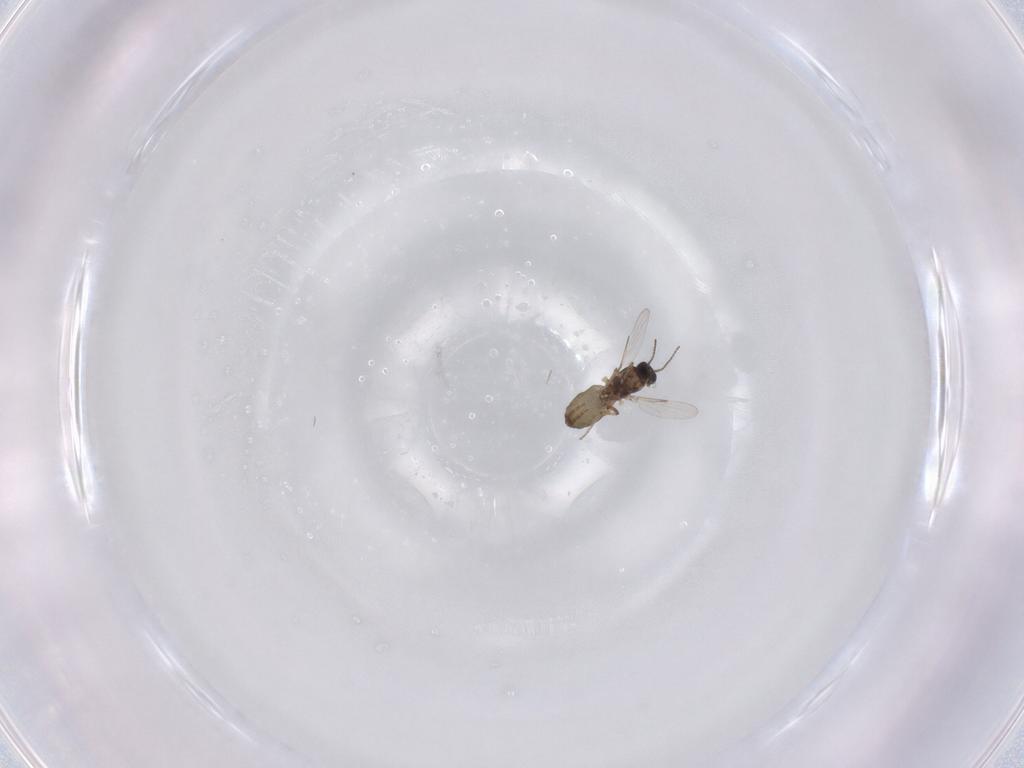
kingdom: Animalia
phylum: Arthropoda
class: Insecta
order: Diptera
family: Ceratopogonidae
